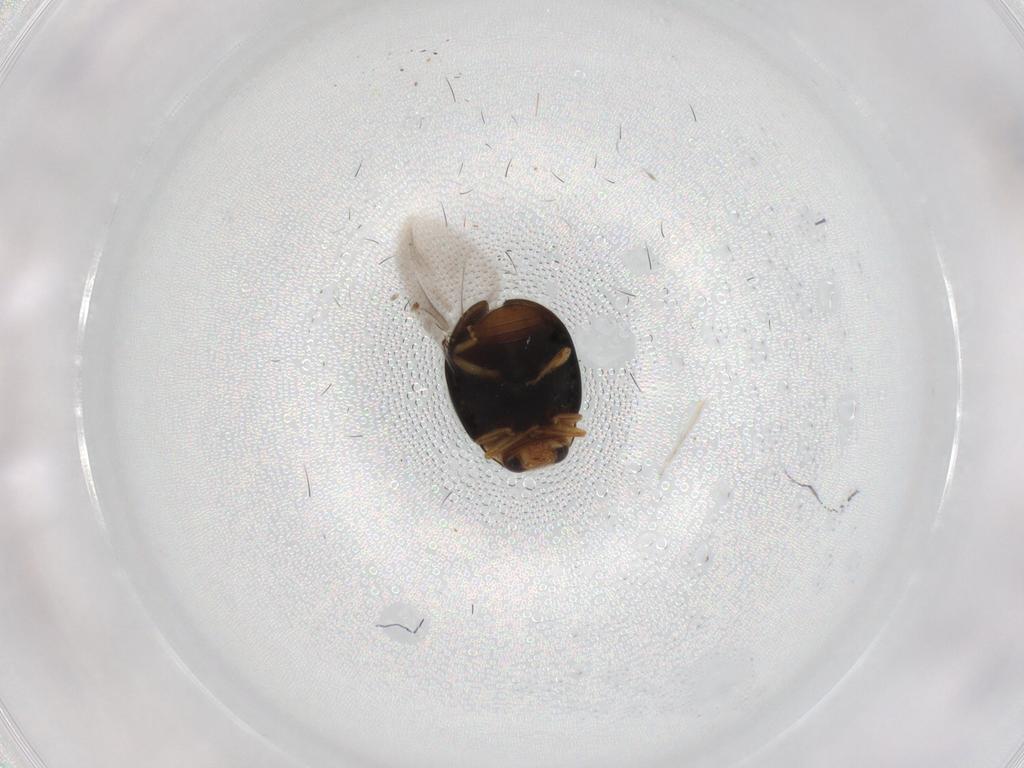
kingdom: Animalia
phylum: Arthropoda
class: Insecta
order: Coleoptera
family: Coccinellidae
